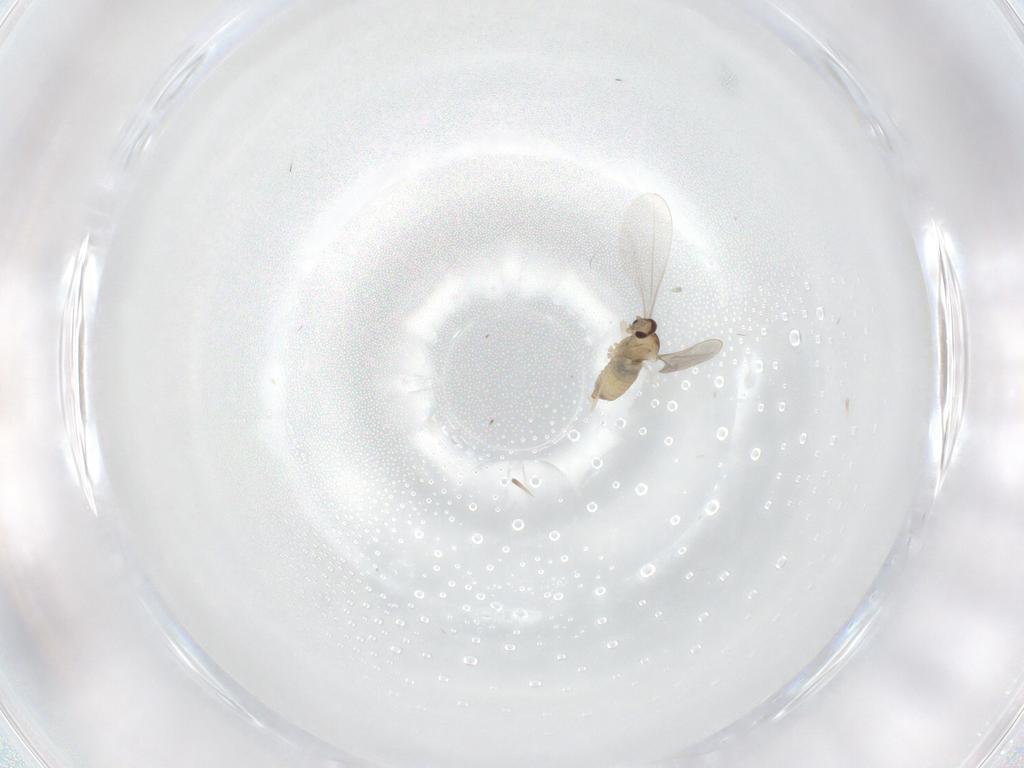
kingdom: Animalia
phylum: Arthropoda
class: Insecta
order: Diptera
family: Cecidomyiidae
